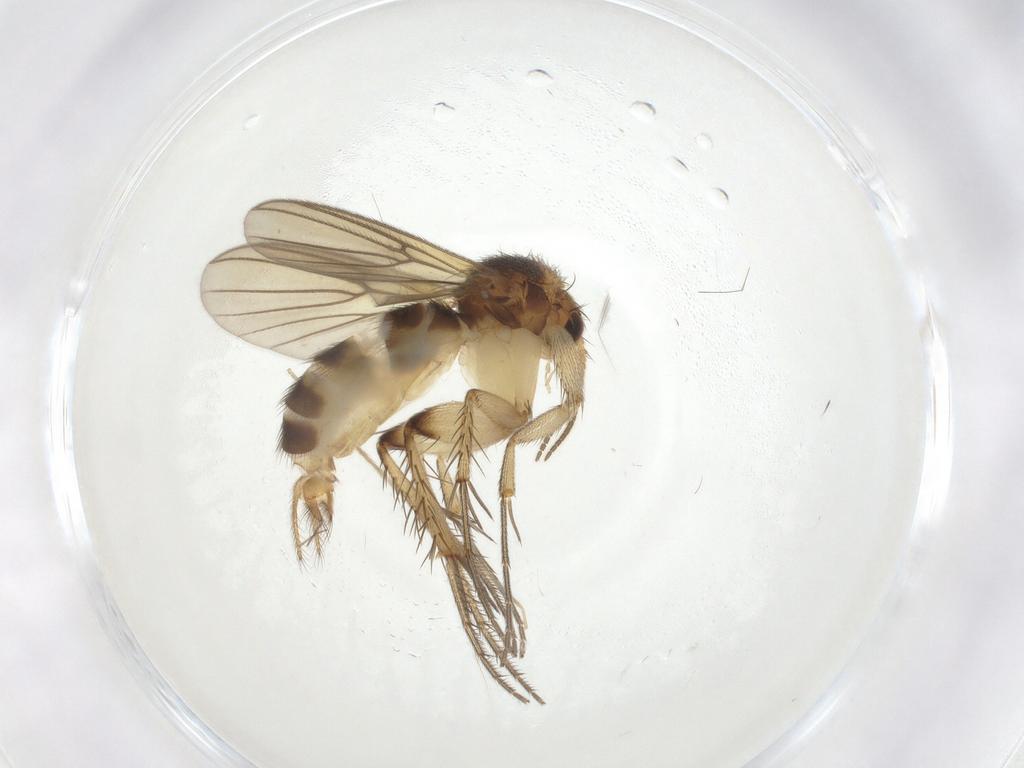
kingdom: Animalia
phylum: Arthropoda
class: Insecta
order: Diptera
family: Mycetophilidae
